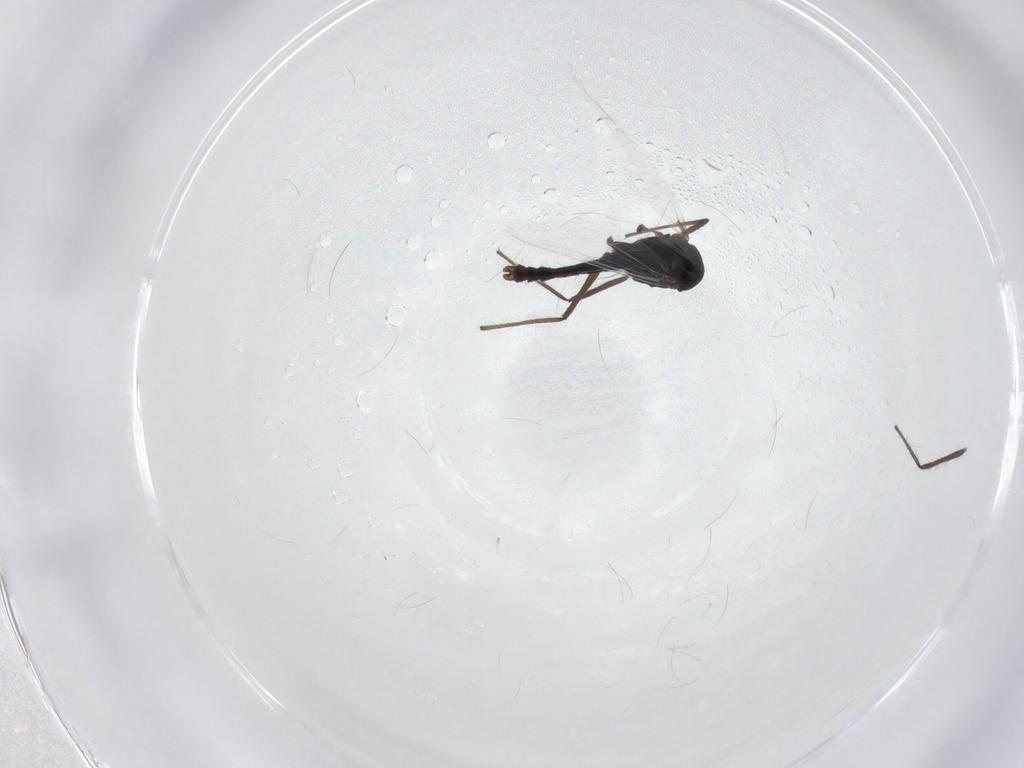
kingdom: Animalia
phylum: Arthropoda
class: Insecta
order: Diptera
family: Chironomidae
